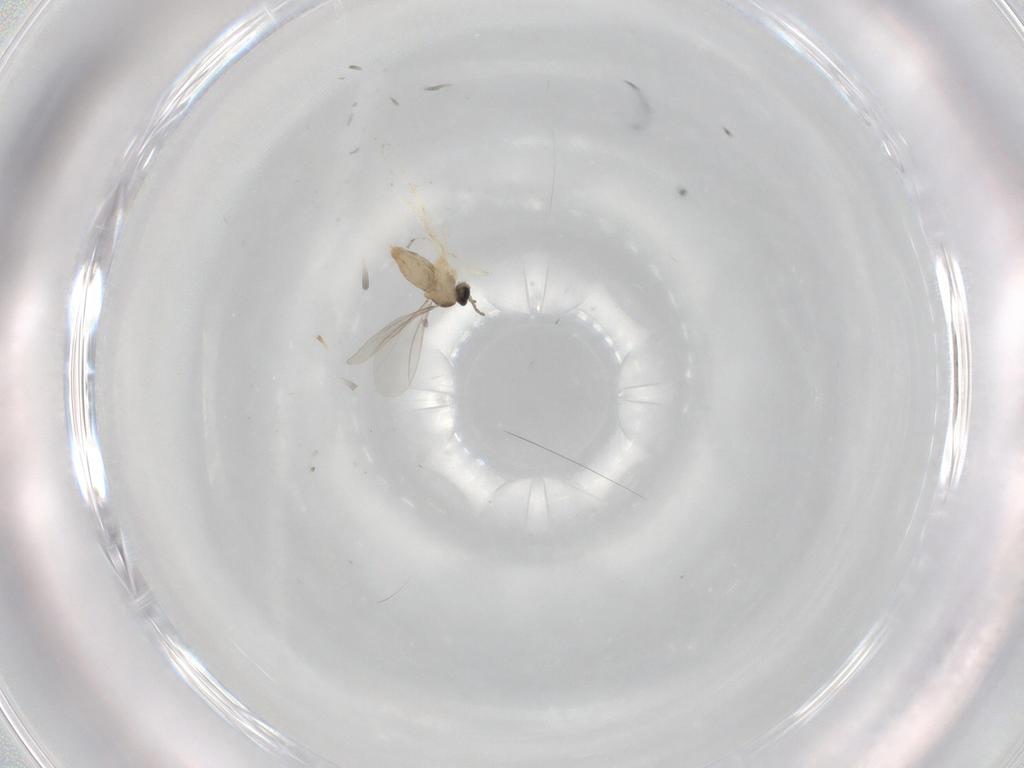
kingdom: Animalia
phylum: Arthropoda
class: Insecta
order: Diptera
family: Cecidomyiidae
